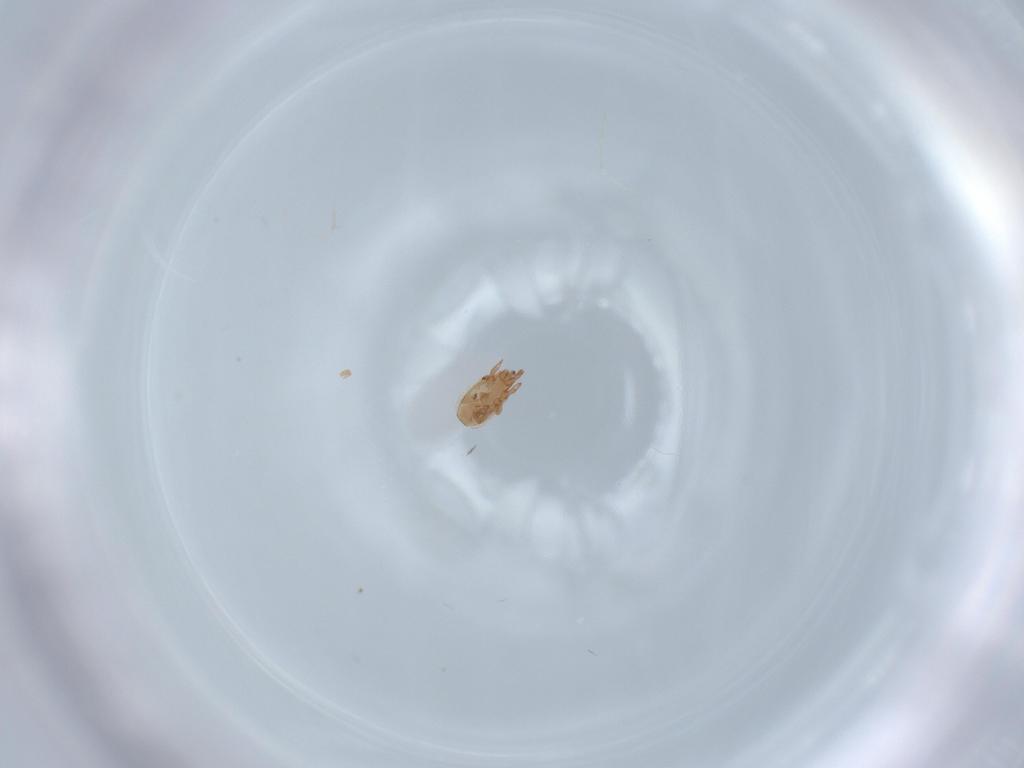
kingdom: Animalia
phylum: Arthropoda
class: Arachnida
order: Mesostigmata
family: Dinychidae
